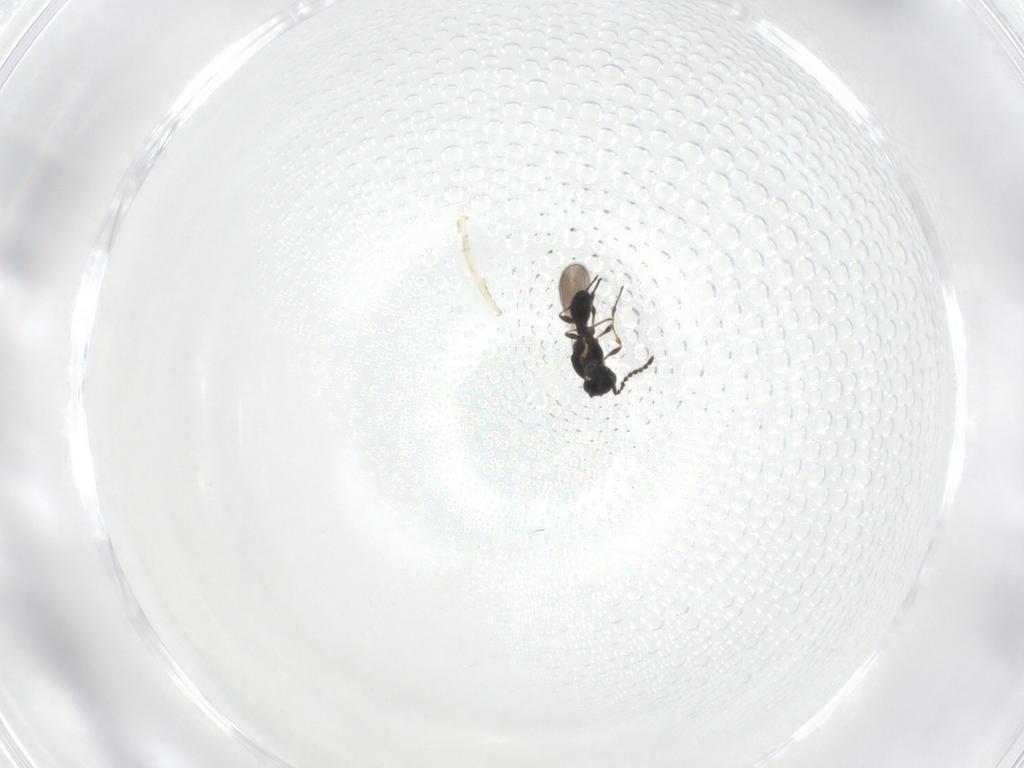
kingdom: Animalia
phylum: Arthropoda
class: Insecta
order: Hymenoptera
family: Platygastridae
